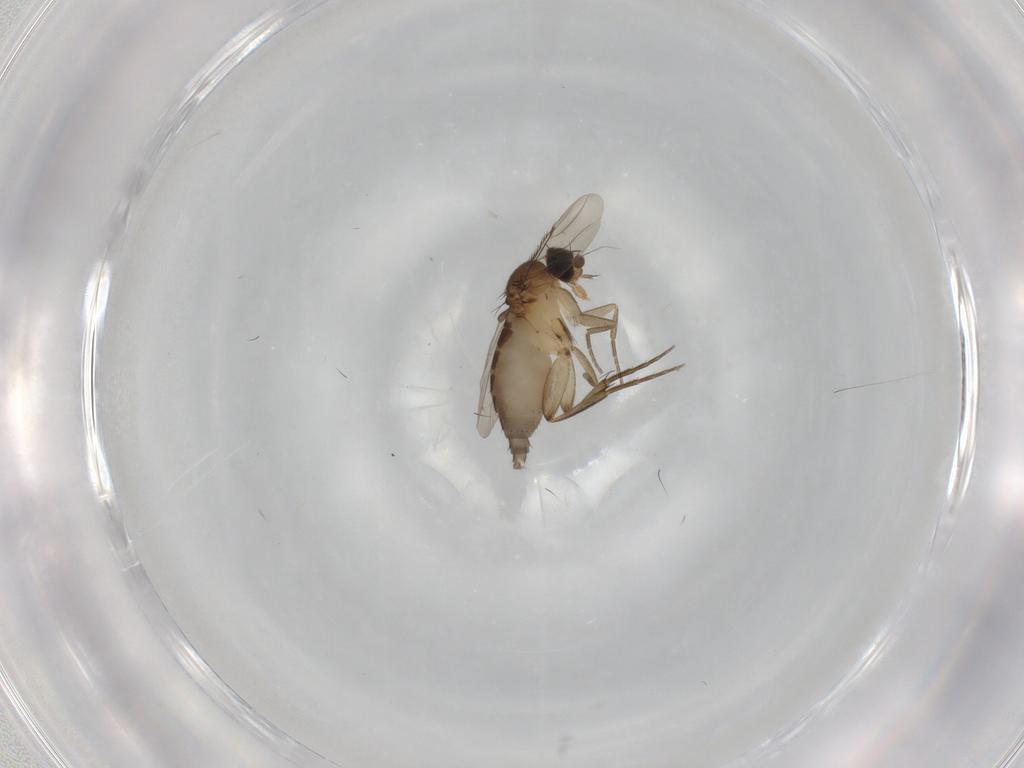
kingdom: Animalia
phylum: Arthropoda
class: Insecta
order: Diptera
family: Phoridae
